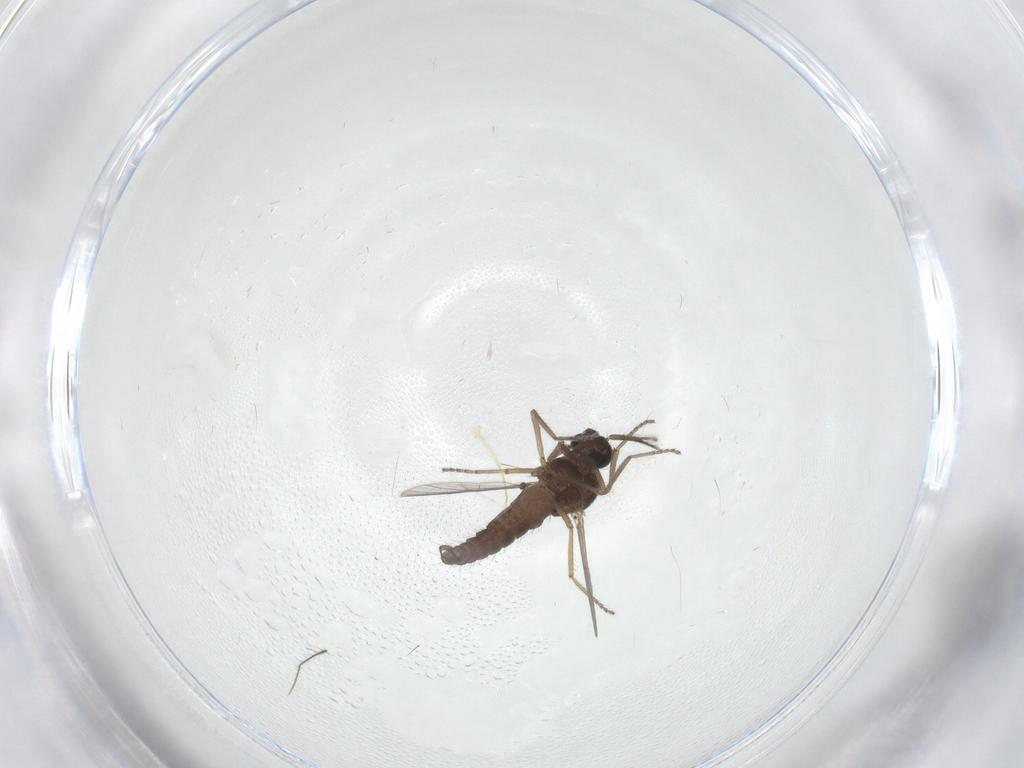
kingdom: Animalia
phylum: Arthropoda
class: Insecta
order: Diptera
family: Ceratopogonidae
